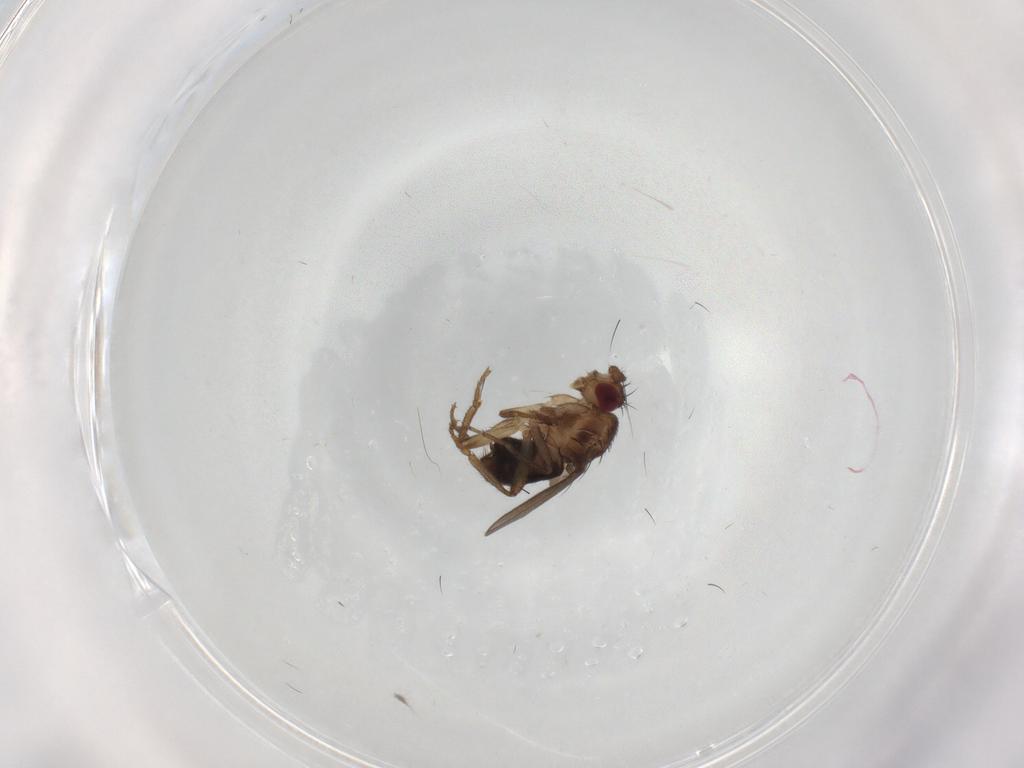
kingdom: Animalia
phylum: Arthropoda
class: Insecta
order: Diptera
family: Sphaeroceridae
